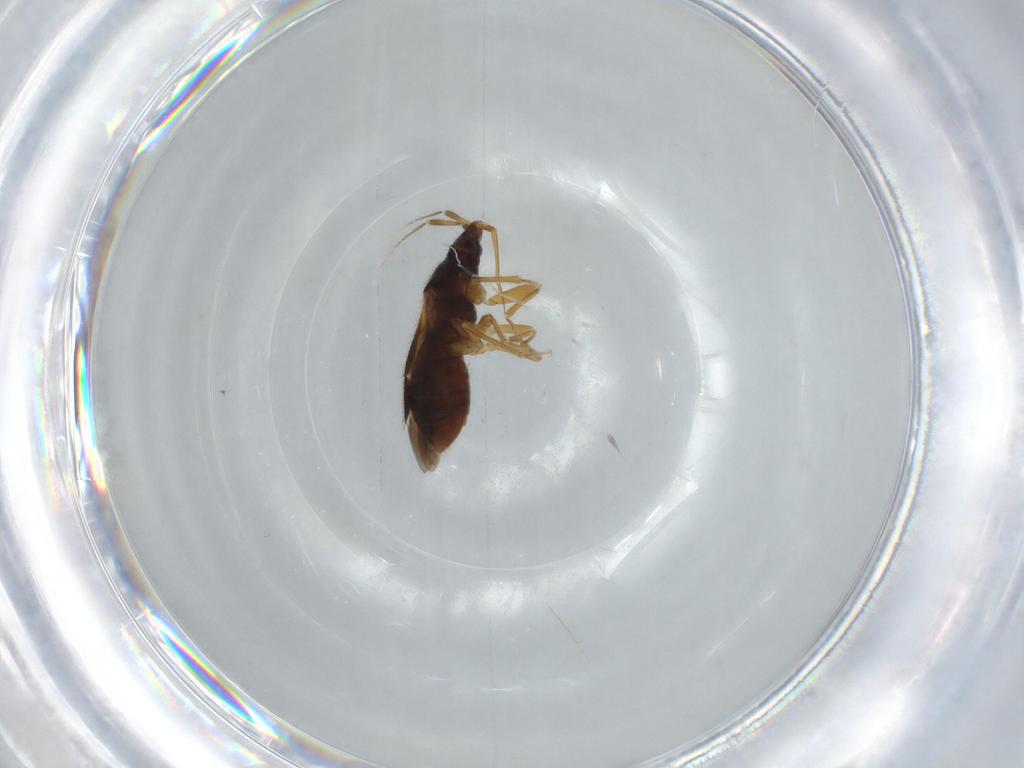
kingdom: Animalia
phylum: Arthropoda
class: Insecta
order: Hemiptera
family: Lasiochilidae
